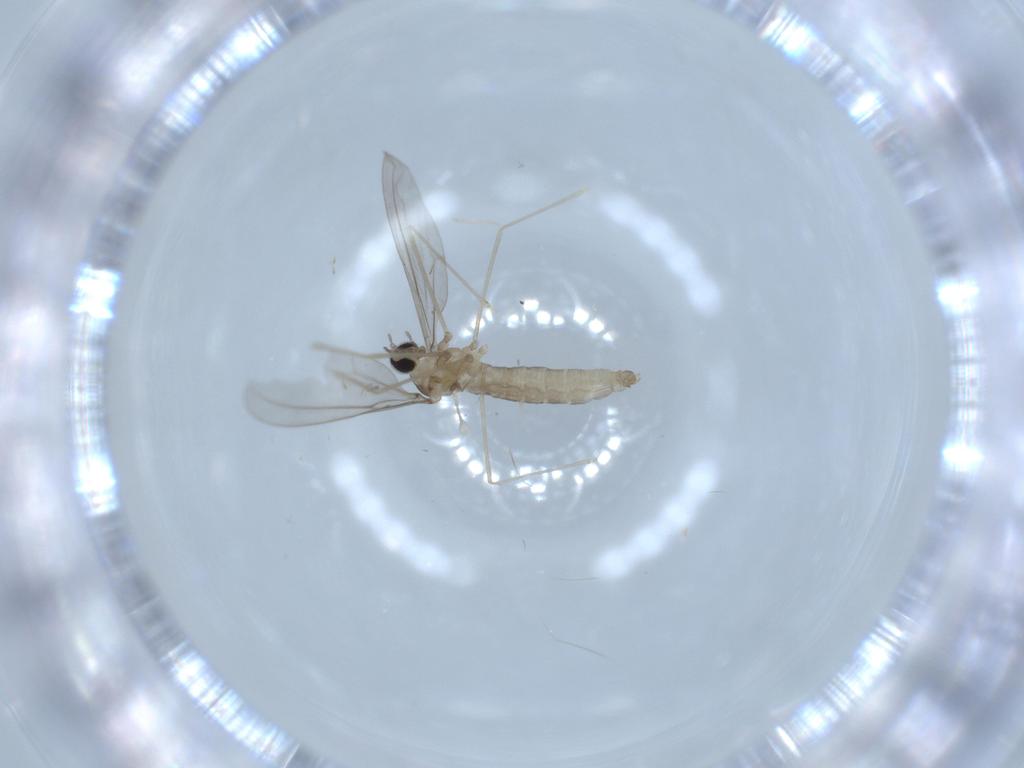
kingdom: Animalia
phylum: Arthropoda
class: Insecta
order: Diptera
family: Cecidomyiidae
